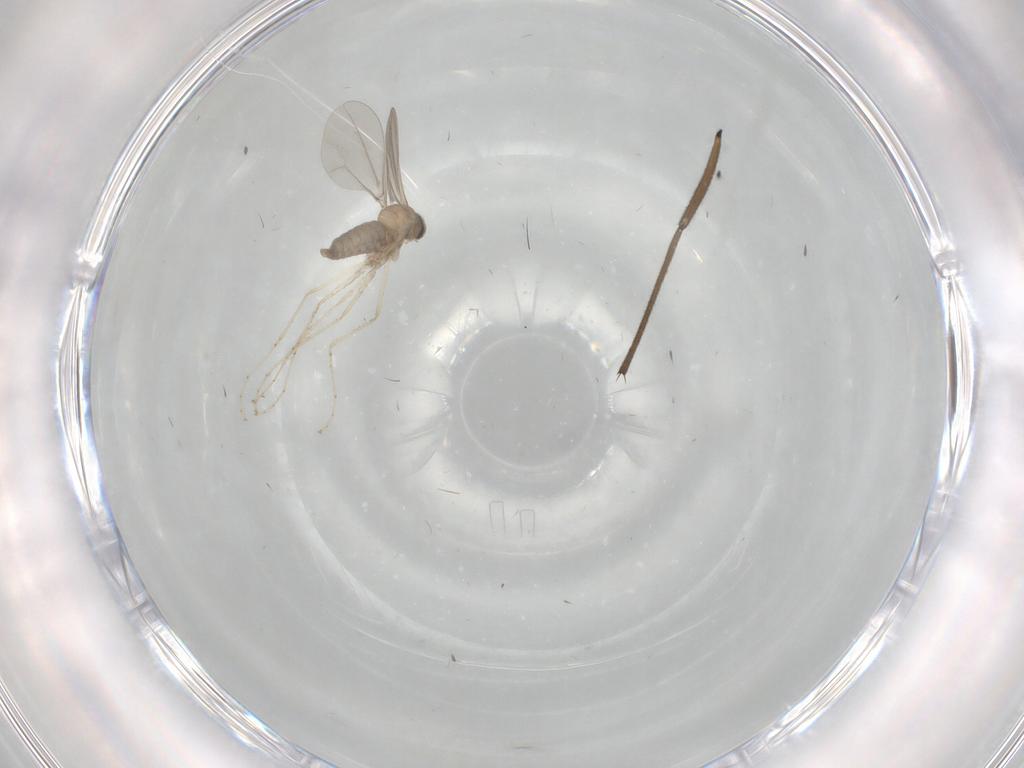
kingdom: Animalia
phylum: Arthropoda
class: Insecta
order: Diptera
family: Sciaridae
